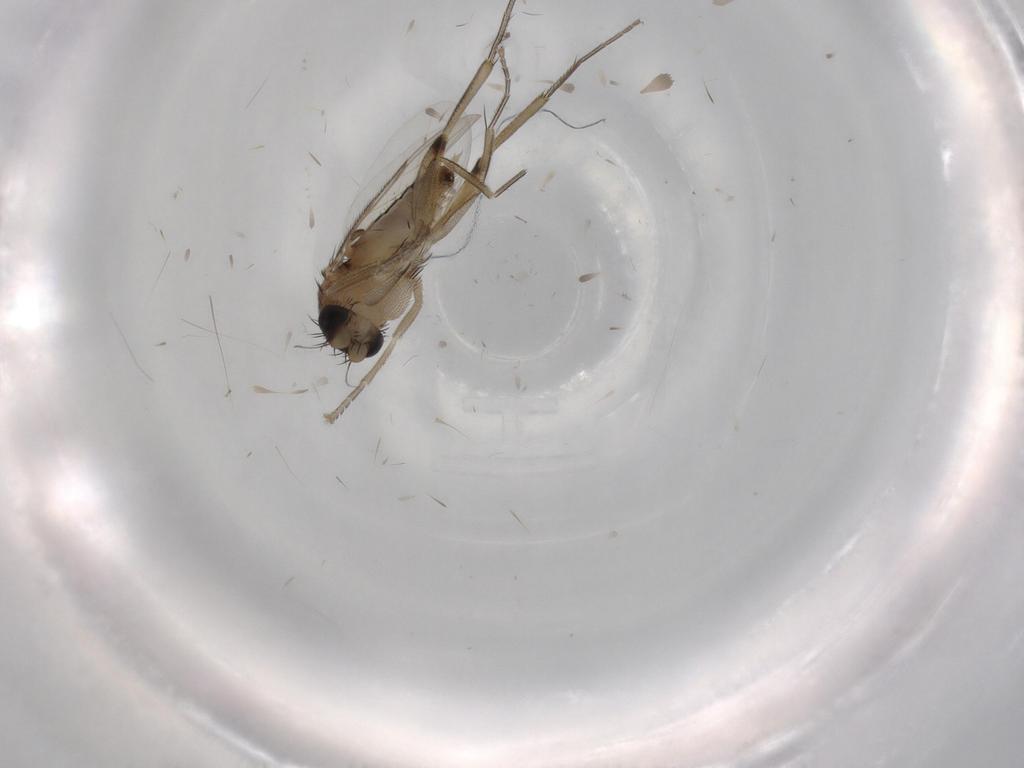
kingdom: Animalia
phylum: Arthropoda
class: Insecta
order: Diptera
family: Phoridae
